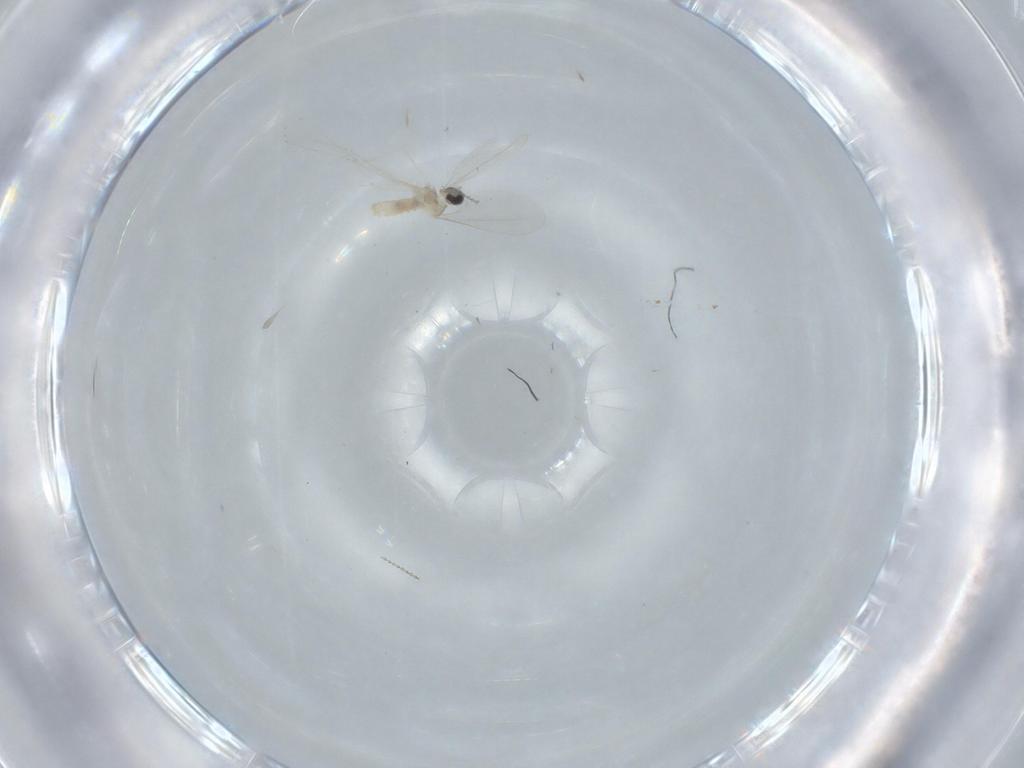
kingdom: Animalia
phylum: Arthropoda
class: Insecta
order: Diptera
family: Cecidomyiidae
